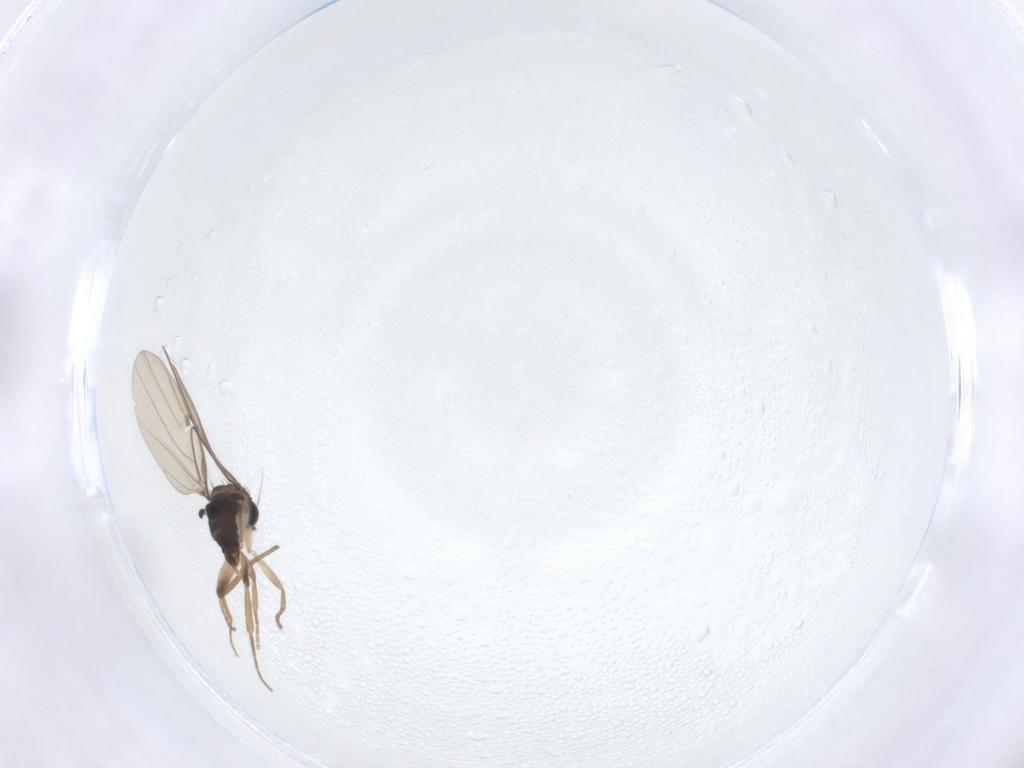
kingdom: Animalia
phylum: Arthropoda
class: Insecta
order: Diptera
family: Phoridae
